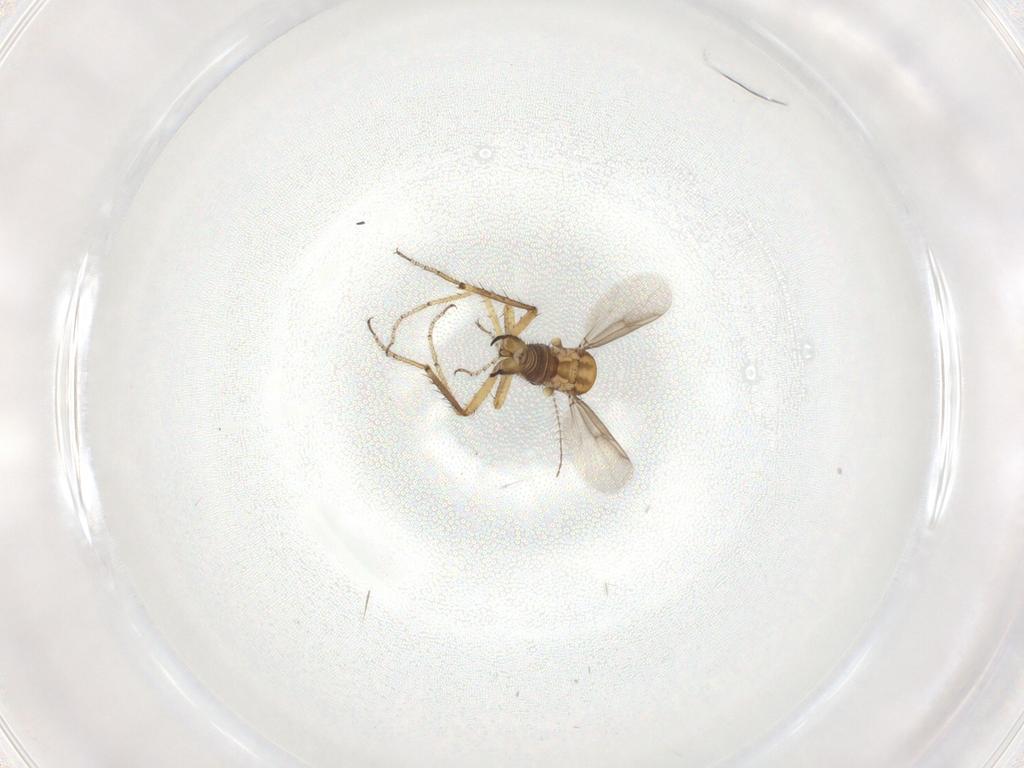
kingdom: Animalia
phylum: Arthropoda
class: Insecta
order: Diptera
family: Ceratopogonidae
